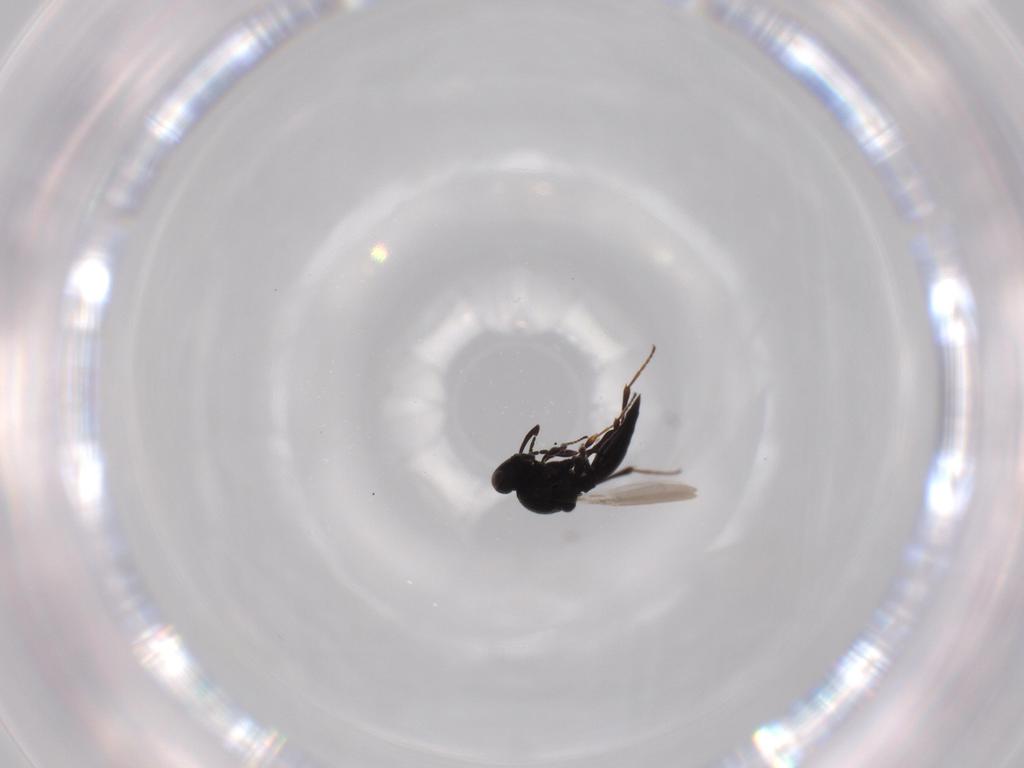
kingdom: Animalia
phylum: Arthropoda
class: Insecta
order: Hymenoptera
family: Platygastridae
